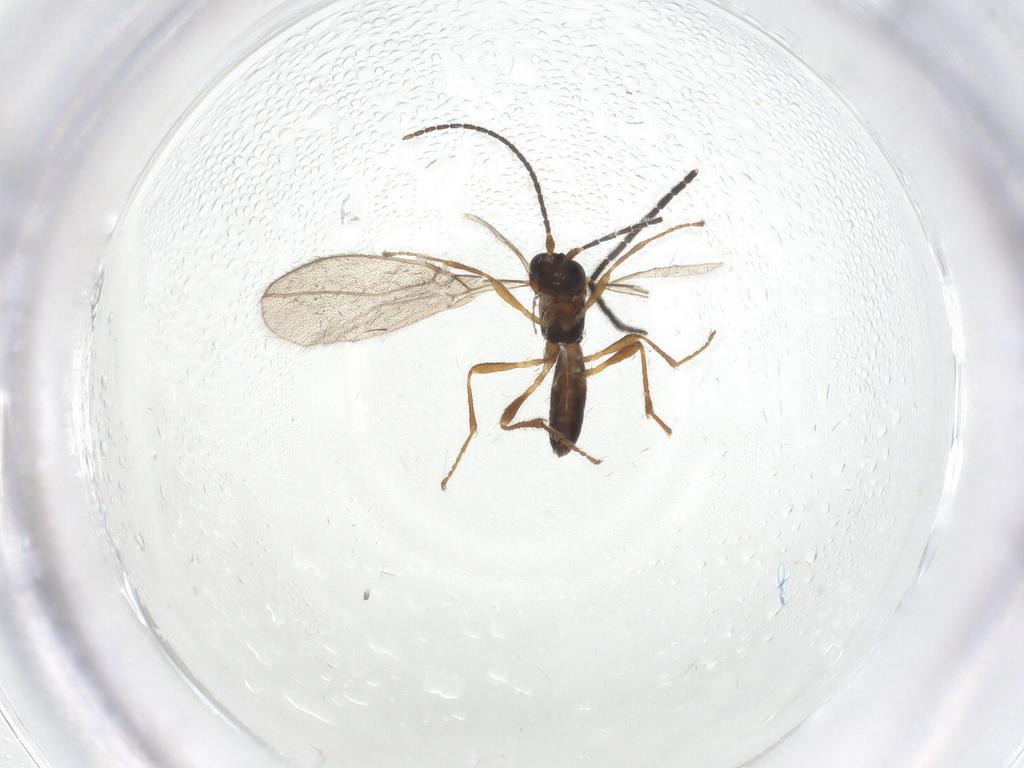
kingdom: Animalia
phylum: Arthropoda
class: Insecta
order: Hymenoptera
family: Braconidae
